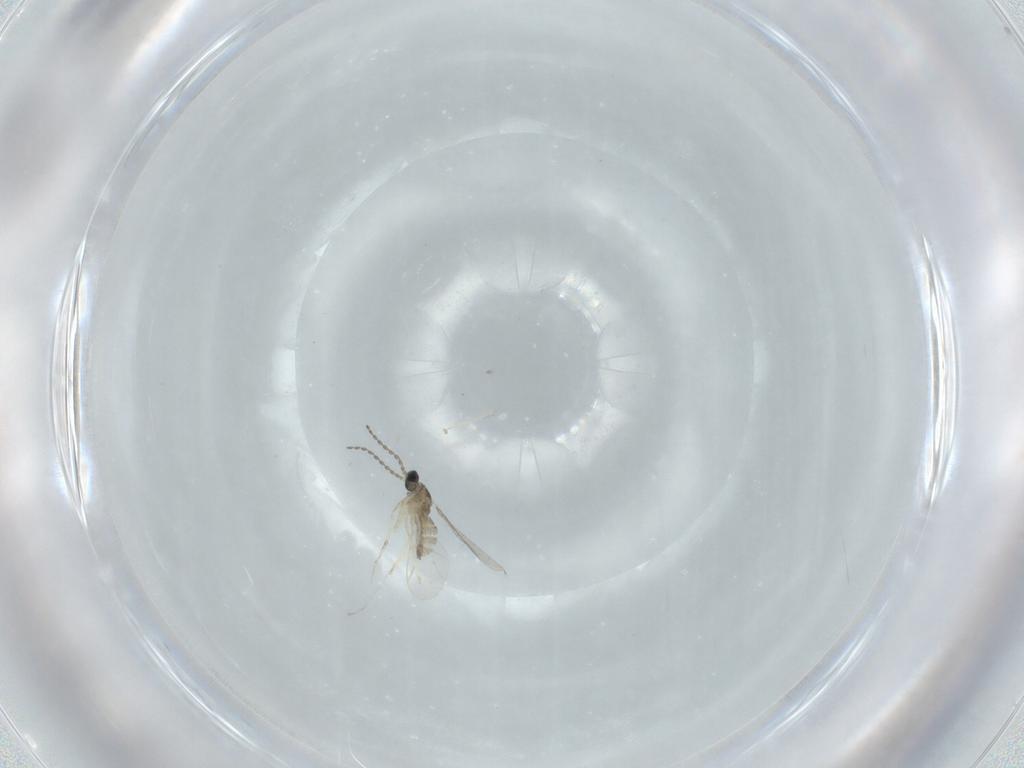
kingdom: Animalia
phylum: Arthropoda
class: Insecta
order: Diptera
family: Cecidomyiidae
